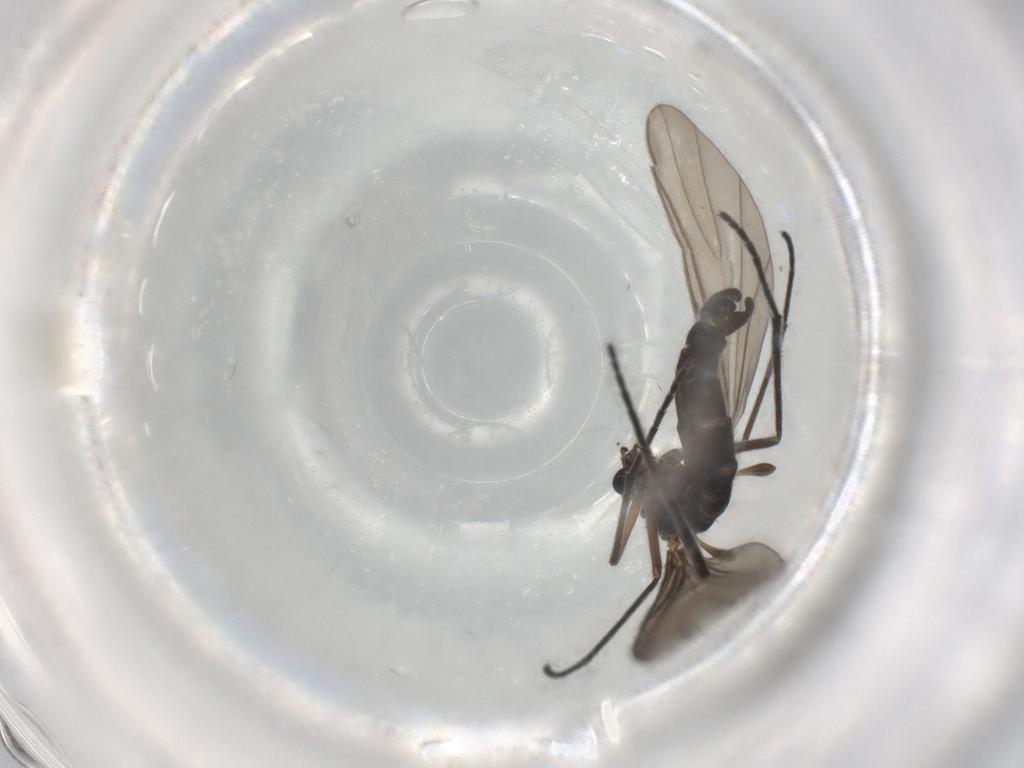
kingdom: Animalia
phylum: Arthropoda
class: Insecta
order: Diptera
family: Sciaridae
